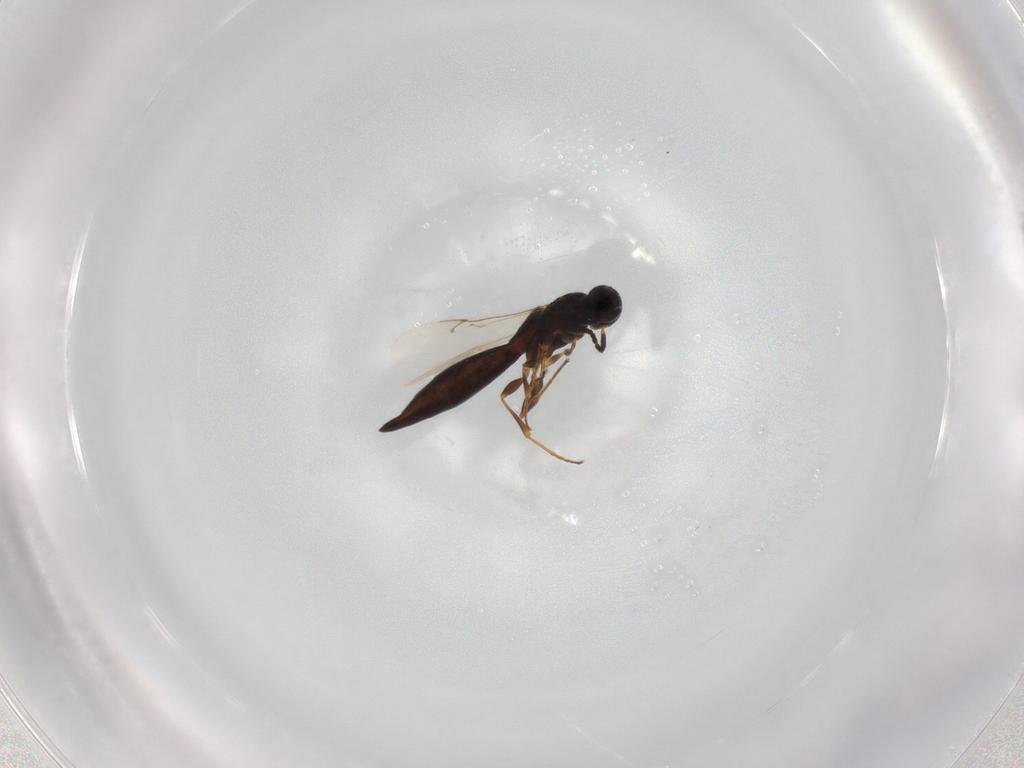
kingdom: Animalia
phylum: Arthropoda
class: Insecta
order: Hymenoptera
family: Scelionidae
